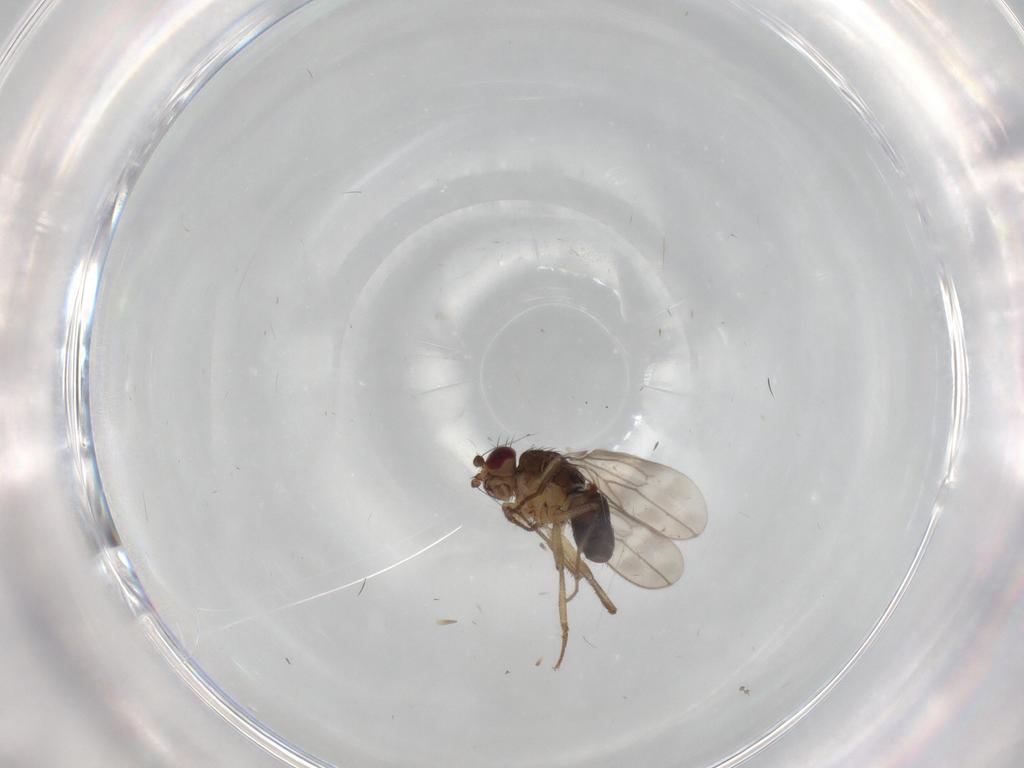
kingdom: Animalia
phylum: Arthropoda
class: Insecta
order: Diptera
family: Sphaeroceridae
